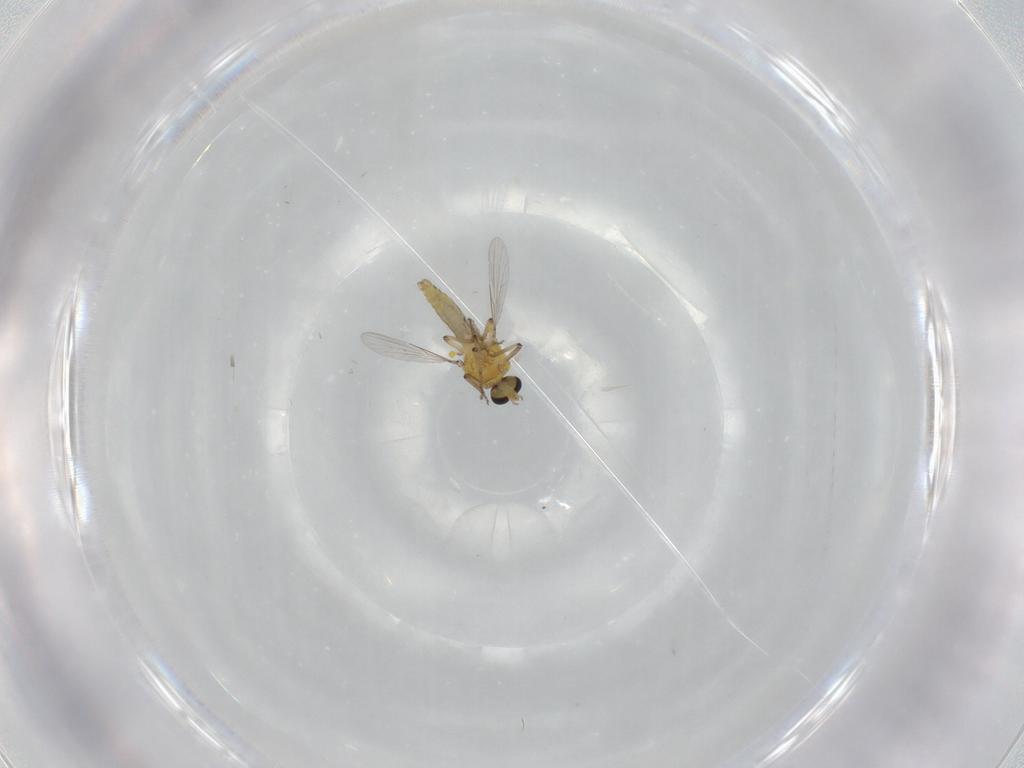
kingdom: Animalia
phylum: Arthropoda
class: Insecta
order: Diptera
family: Ceratopogonidae
